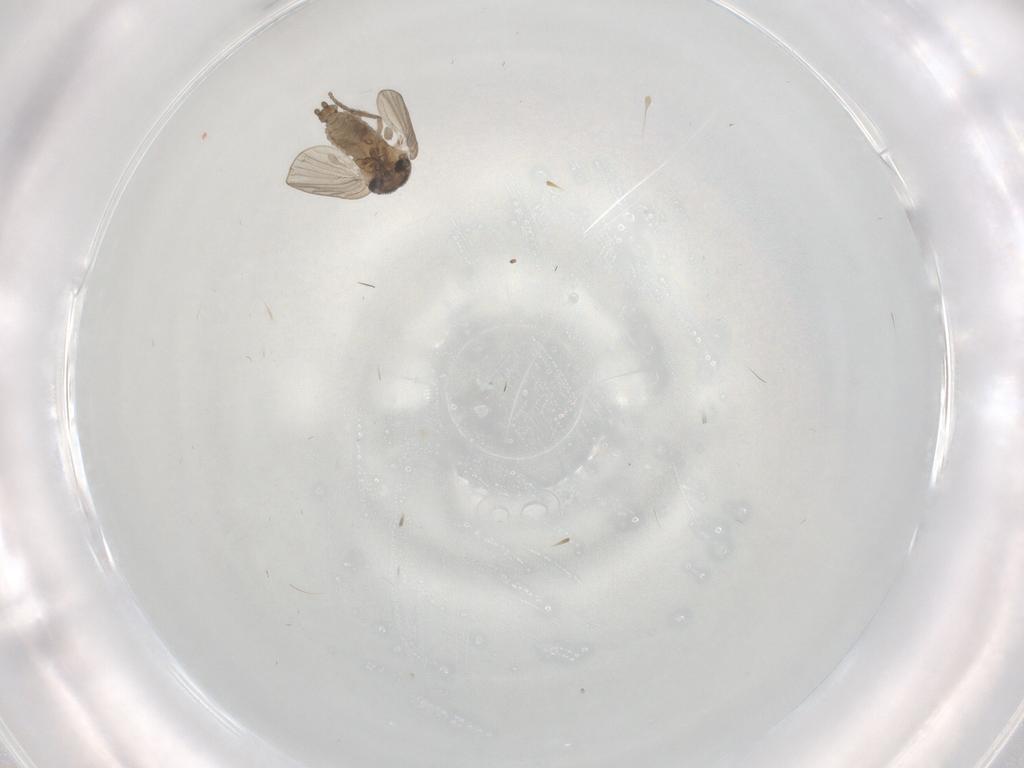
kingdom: Animalia
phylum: Arthropoda
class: Insecta
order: Diptera
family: Psychodidae
